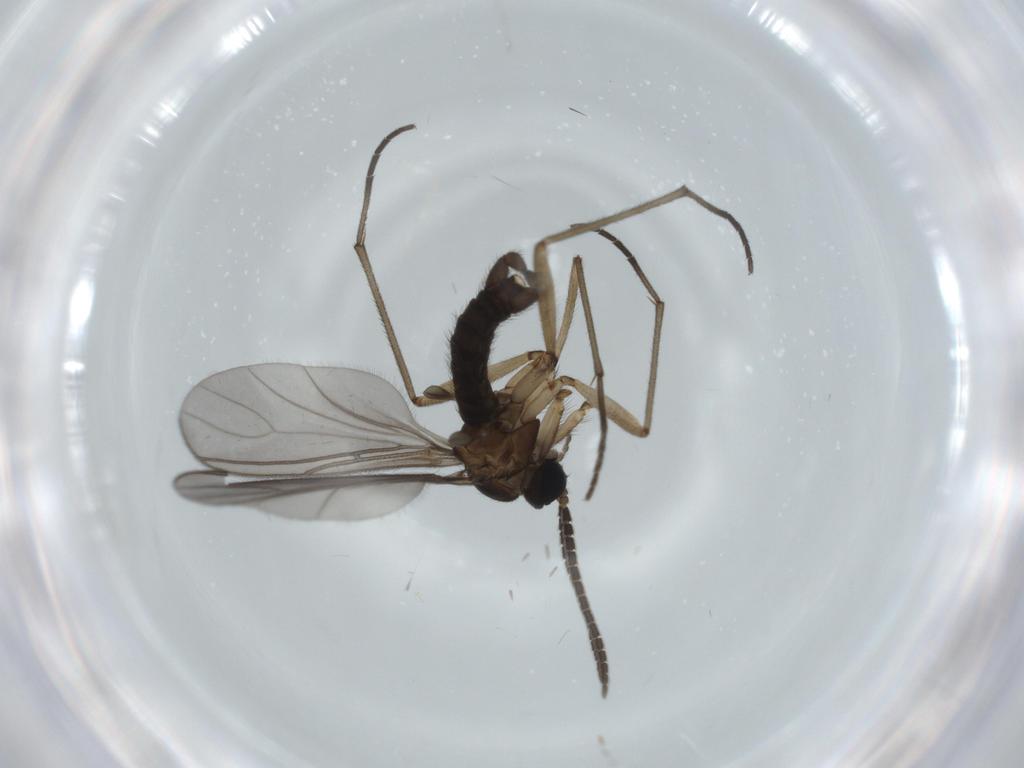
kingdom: Animalia
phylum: Arthropoda
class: Insecta
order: Diptera
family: Sciaridae
